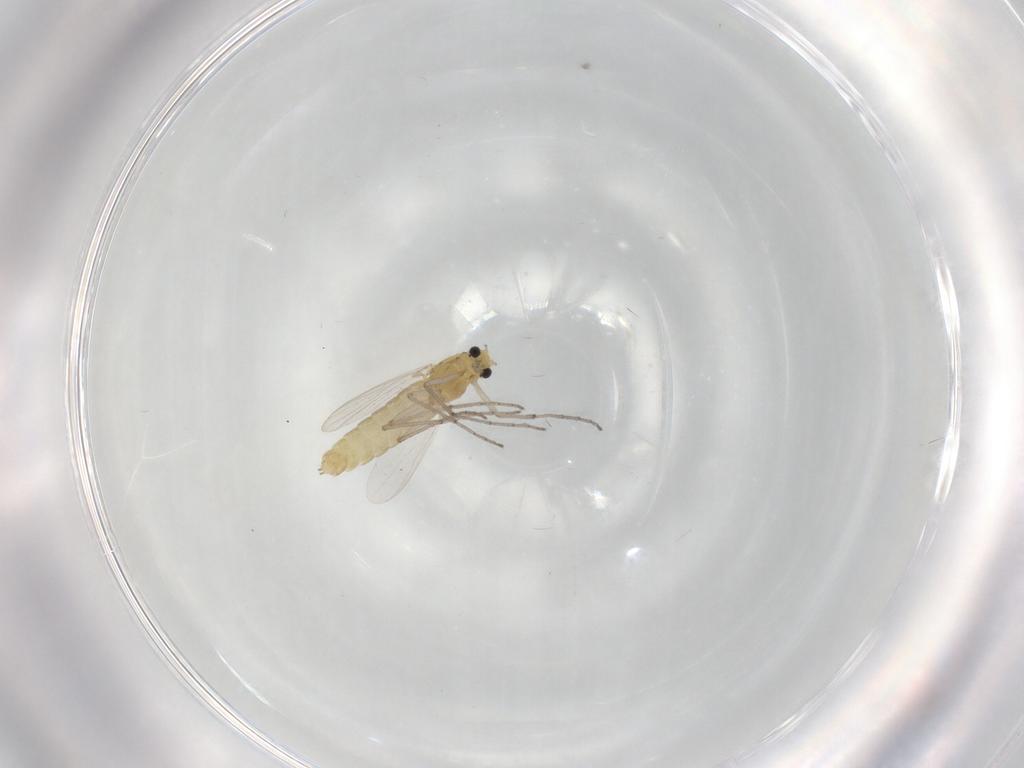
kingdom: Animalia
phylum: Arthropoda
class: Insecta
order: Diptera
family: Chironomidae
